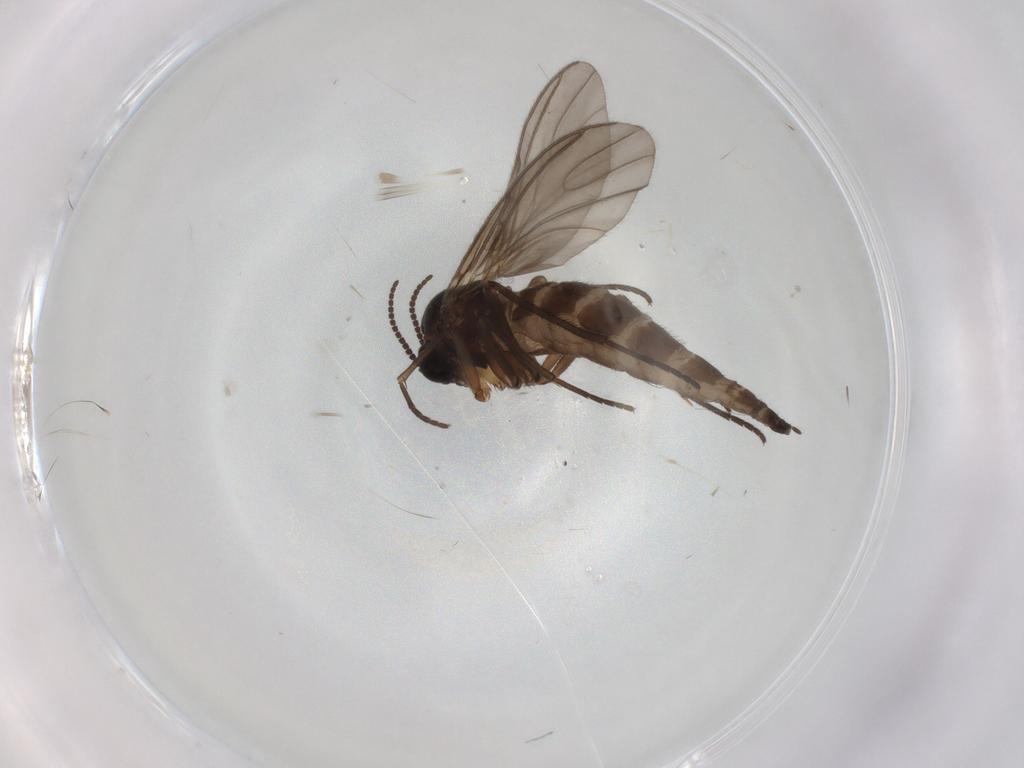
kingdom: Animalia
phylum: Arthropoda
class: Insecta
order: Diptera
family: Sciaridae
